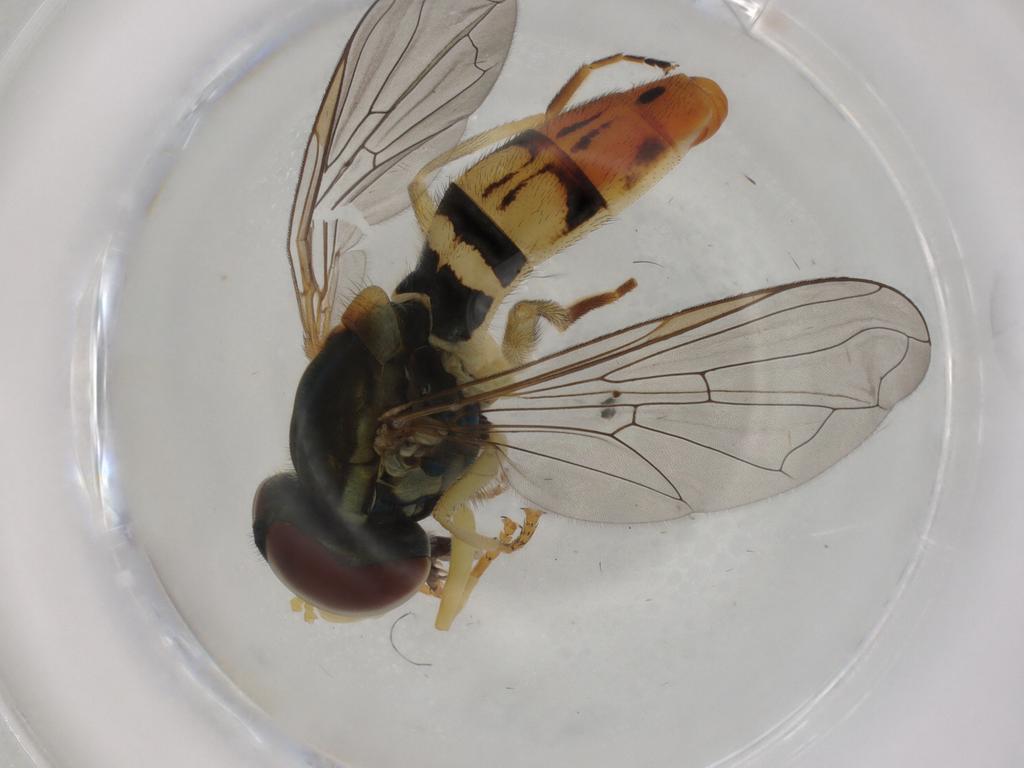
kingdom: Animalia
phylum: Arthropoda
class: Insecta
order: Diptera
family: Syrphidae
